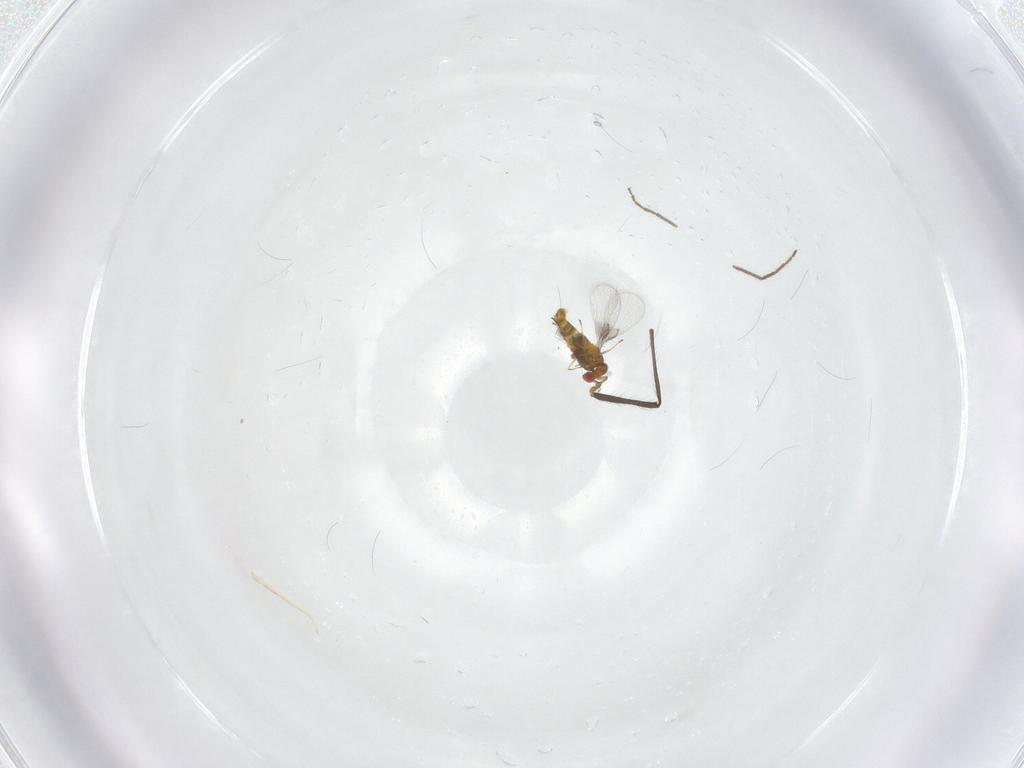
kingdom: Animalia
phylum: Arthropoda
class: Insecta
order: Hymenoptera
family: Trichogrammatidae
